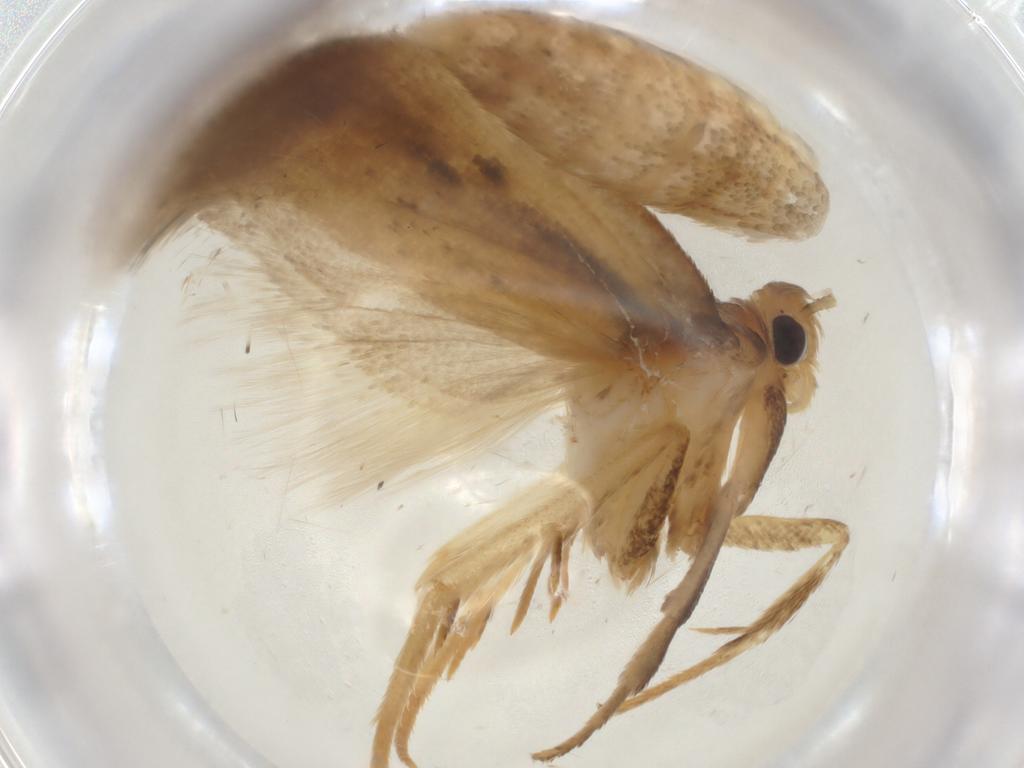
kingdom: Animalia
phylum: Arthropoda
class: Insecta
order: Lepidoptera
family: Depressariidae
